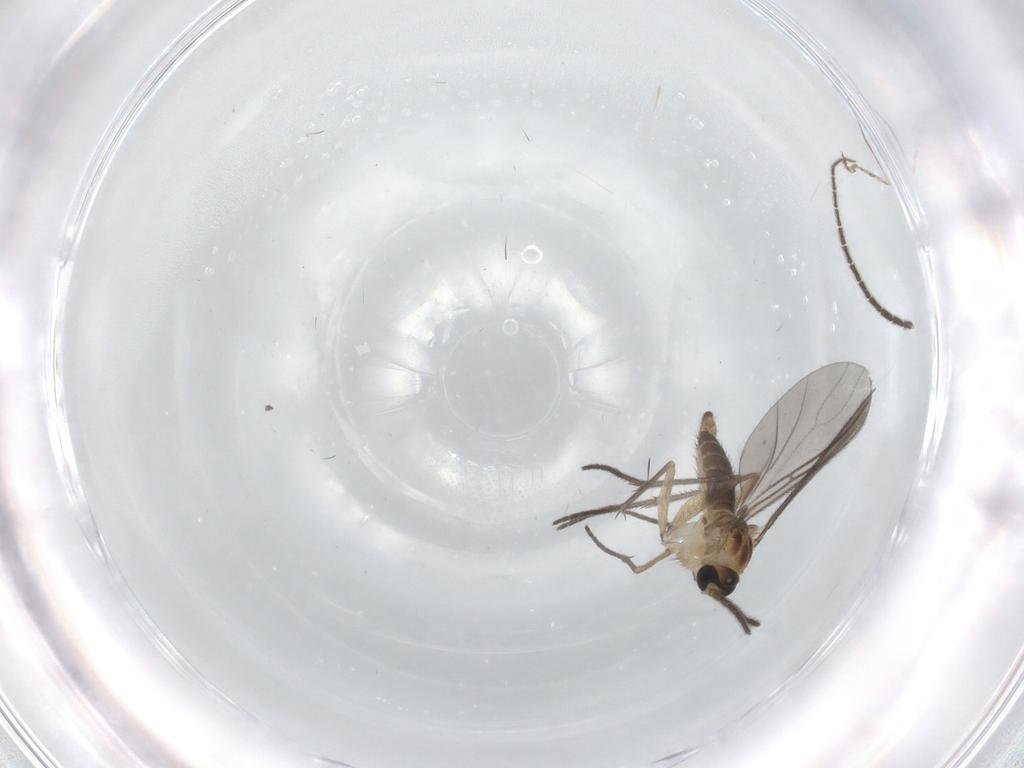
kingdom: Animalia
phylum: Arthropoda
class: Insecta
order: Diptera
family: Sciaridae
